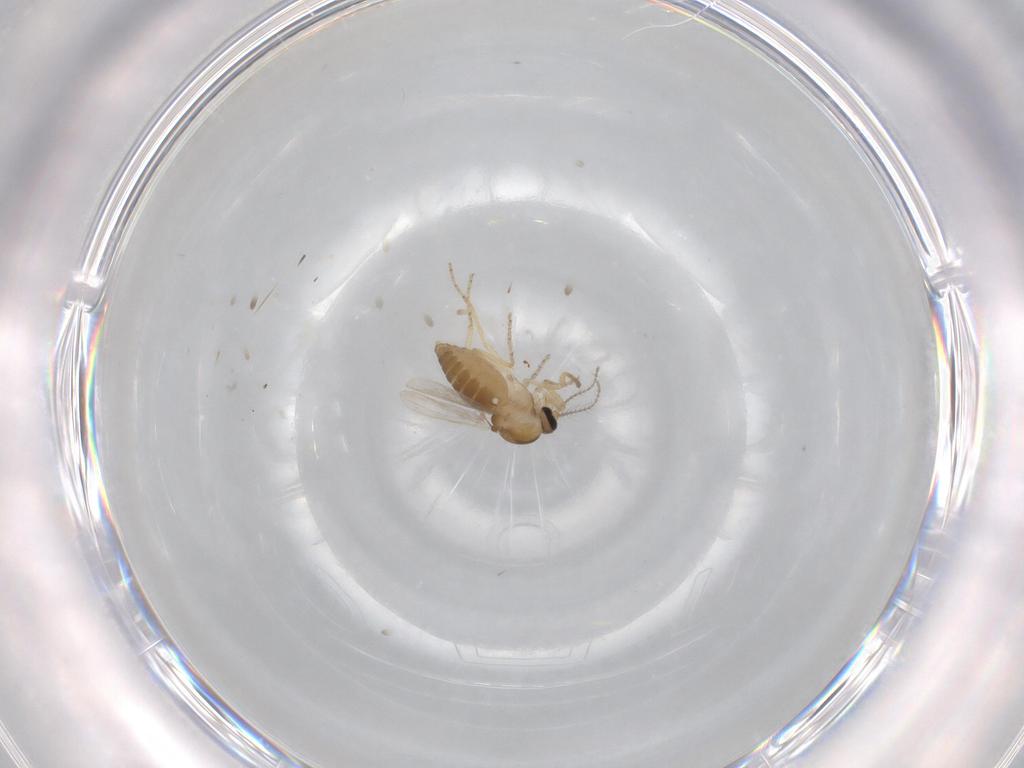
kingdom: Animalia
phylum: Arthropoda
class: Insecta
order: Diptera
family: Ceratopogonidae
